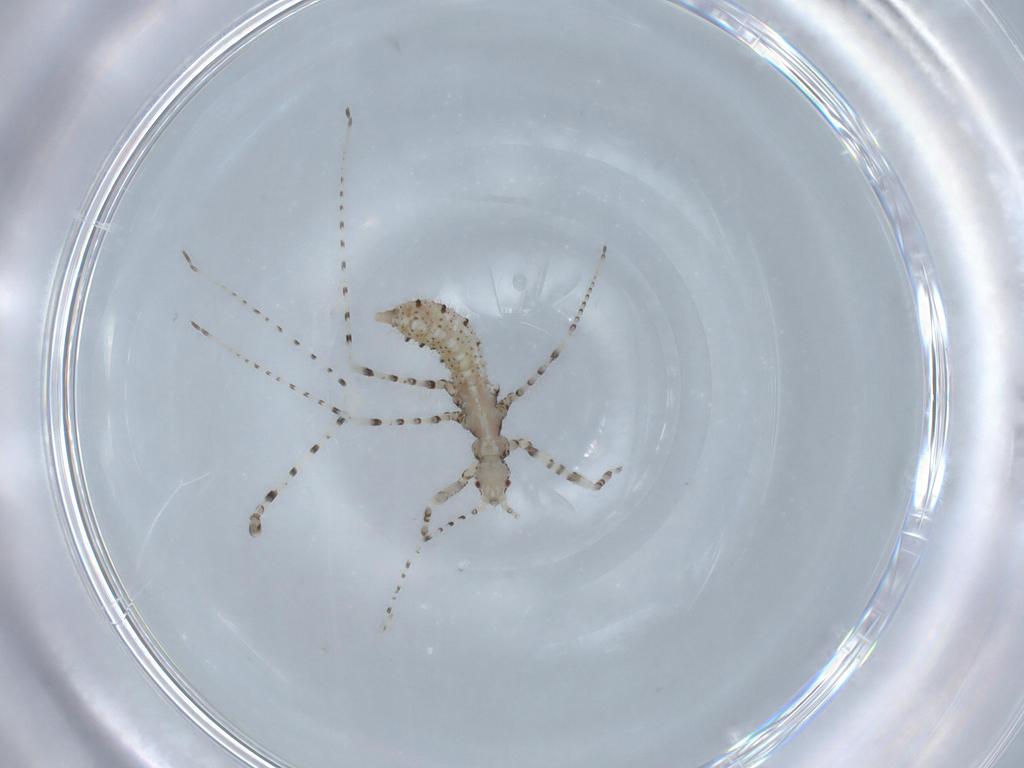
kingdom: Animalia
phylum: Arthropoda
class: Insecta
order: Hemiptera
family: Reduviidae
